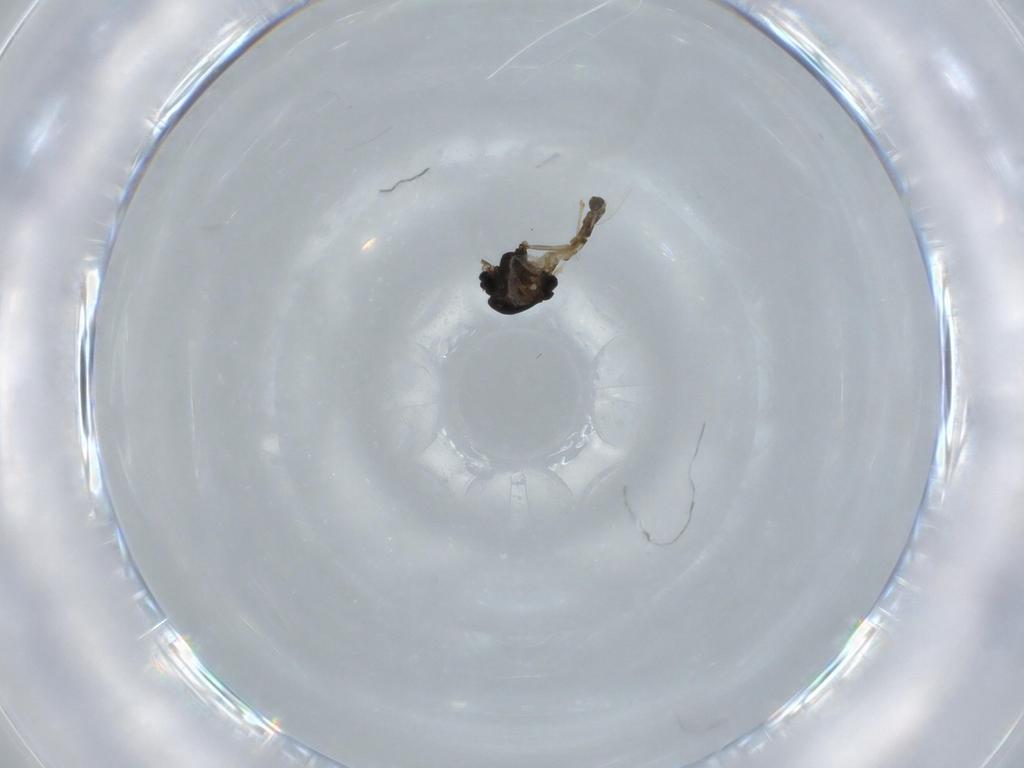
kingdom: Animalia
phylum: Arthropoda
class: Insecta
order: Diptera
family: Chironomidae
